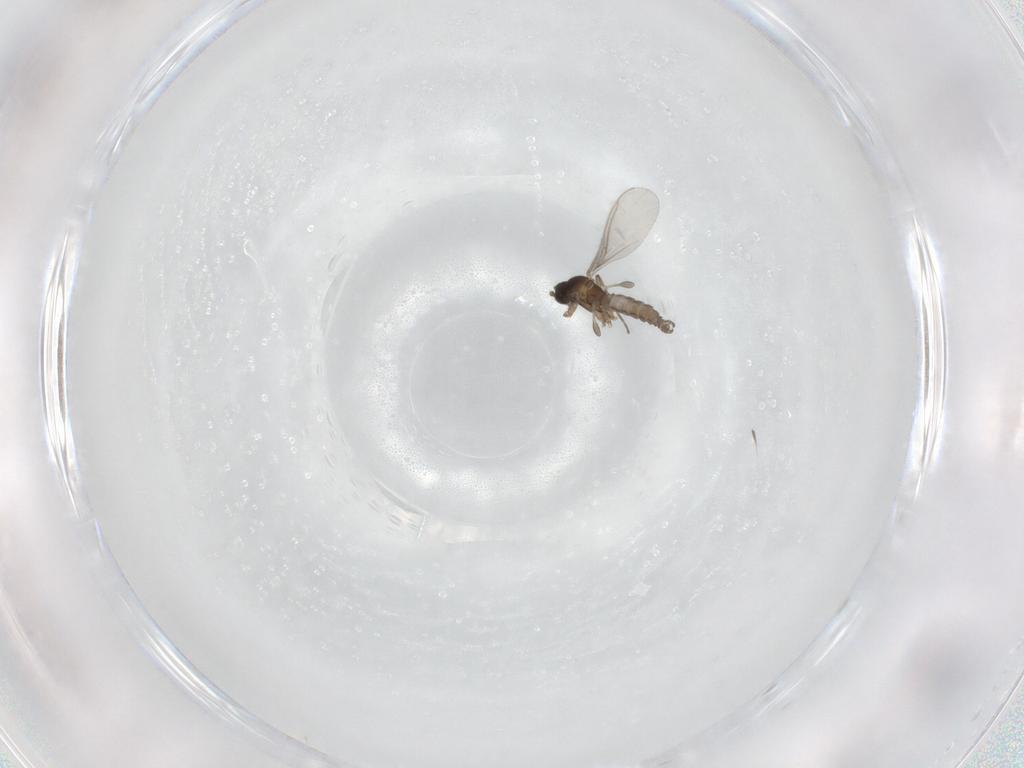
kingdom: Animalia
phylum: Arthropoda
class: Insecta
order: Diptera
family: Sciaridae
